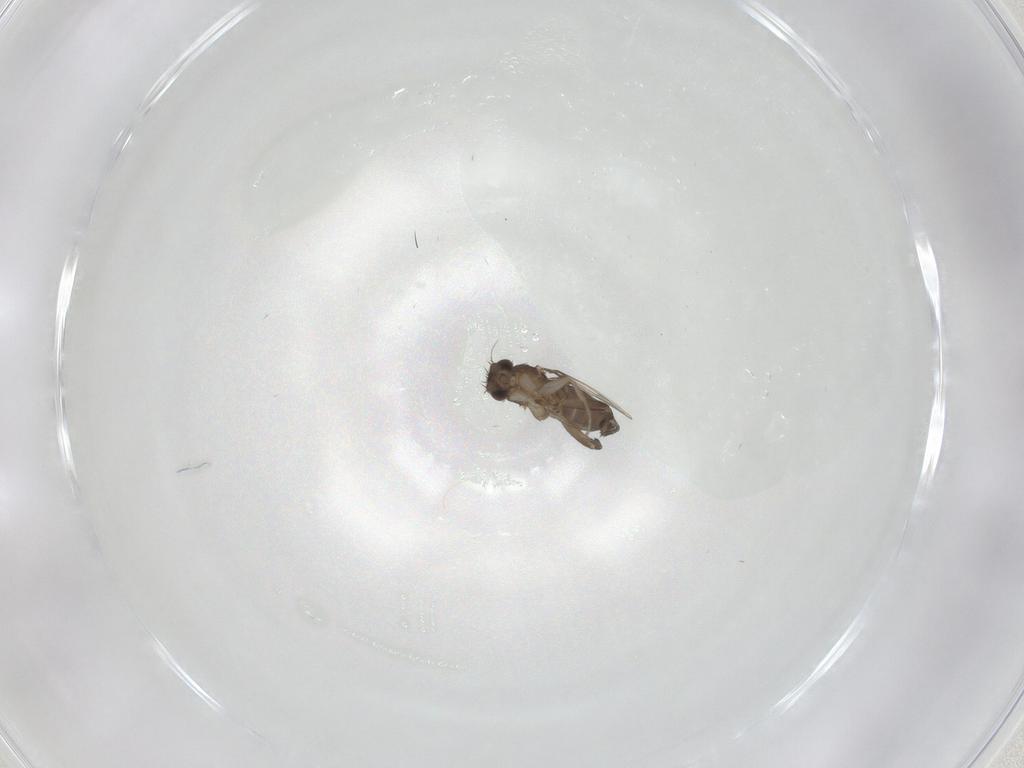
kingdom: Animalia
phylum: Arthropoda
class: Insecta
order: Diptera
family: Phoridae
